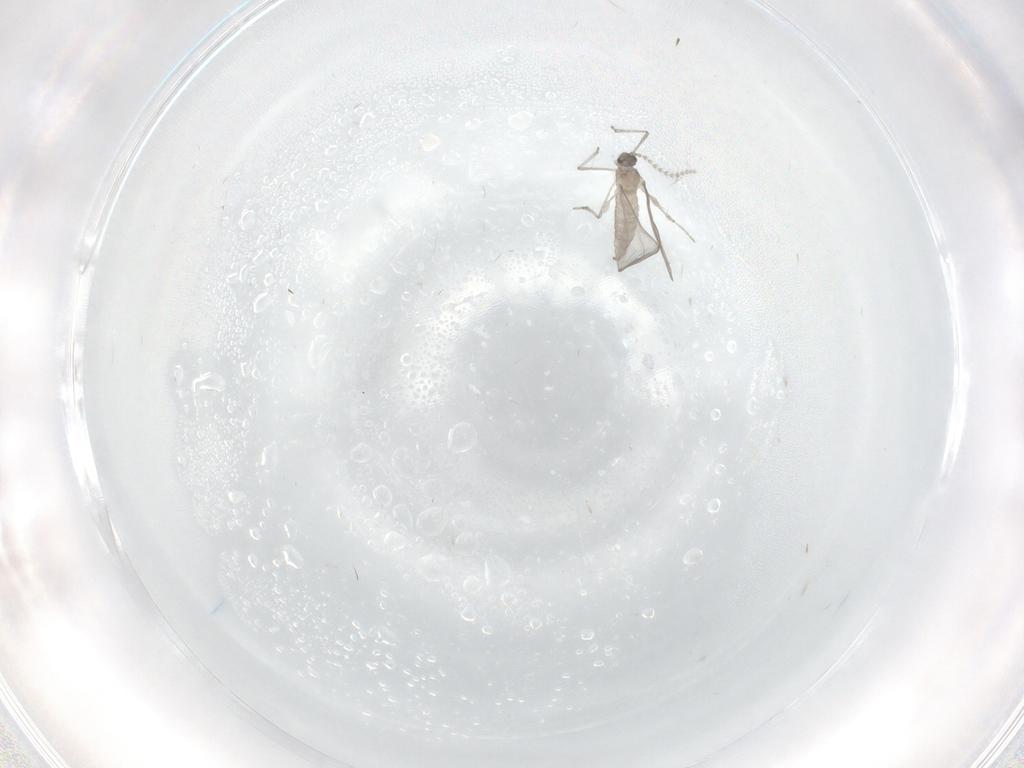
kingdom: Animalia
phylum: Arthropoda
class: Insecta
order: Diptera
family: Cecidomyiidae
